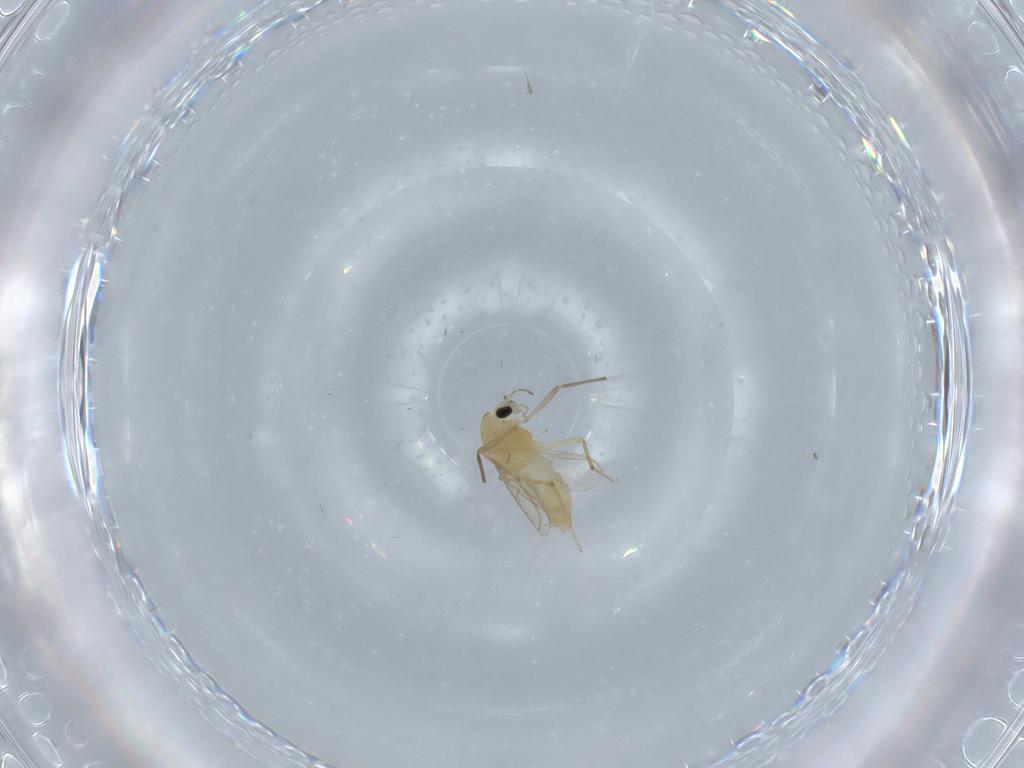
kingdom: Animalia
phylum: Arthropoda
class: Insecta
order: Diptera
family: Cecidomyiidae
